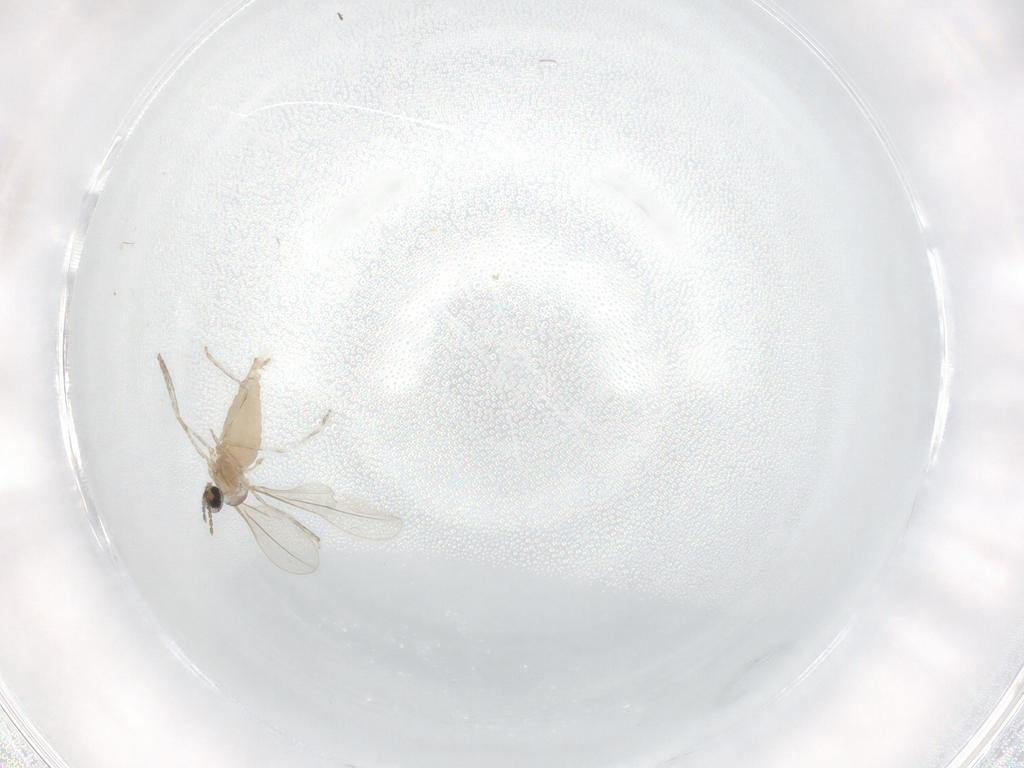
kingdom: Animalia
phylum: Arthropoda
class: Insecta
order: Diptera
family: Cecidomyiidae
